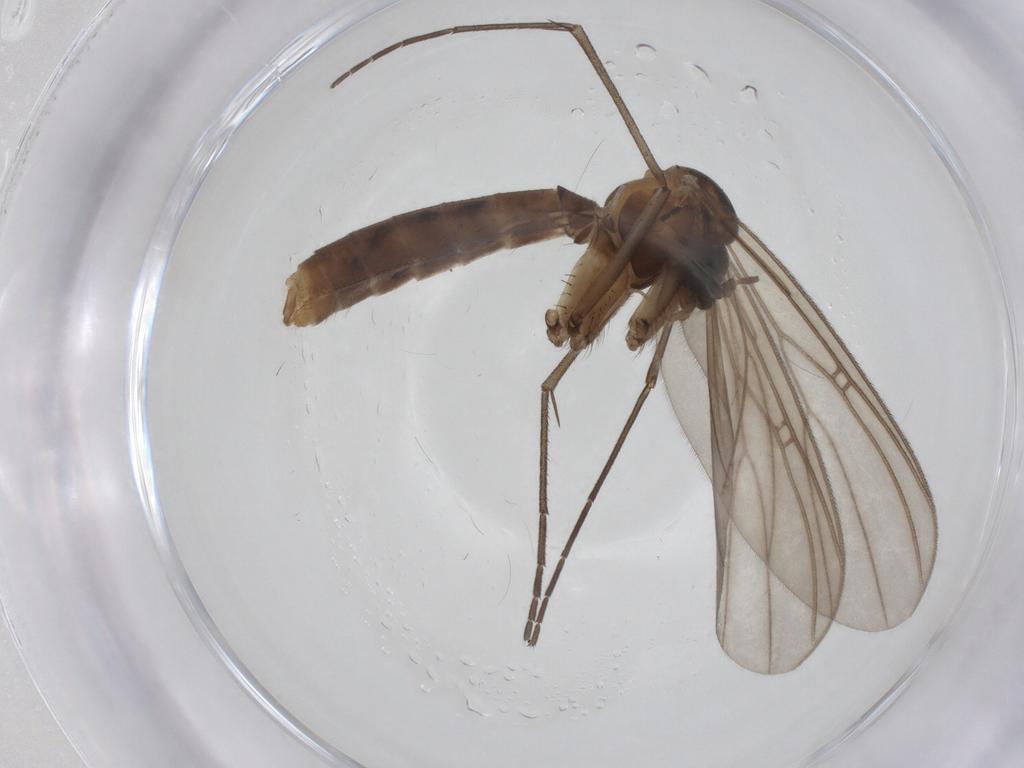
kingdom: Animalia
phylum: Arthropoda
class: Insecta
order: Diptera
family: Mycetophilidae
